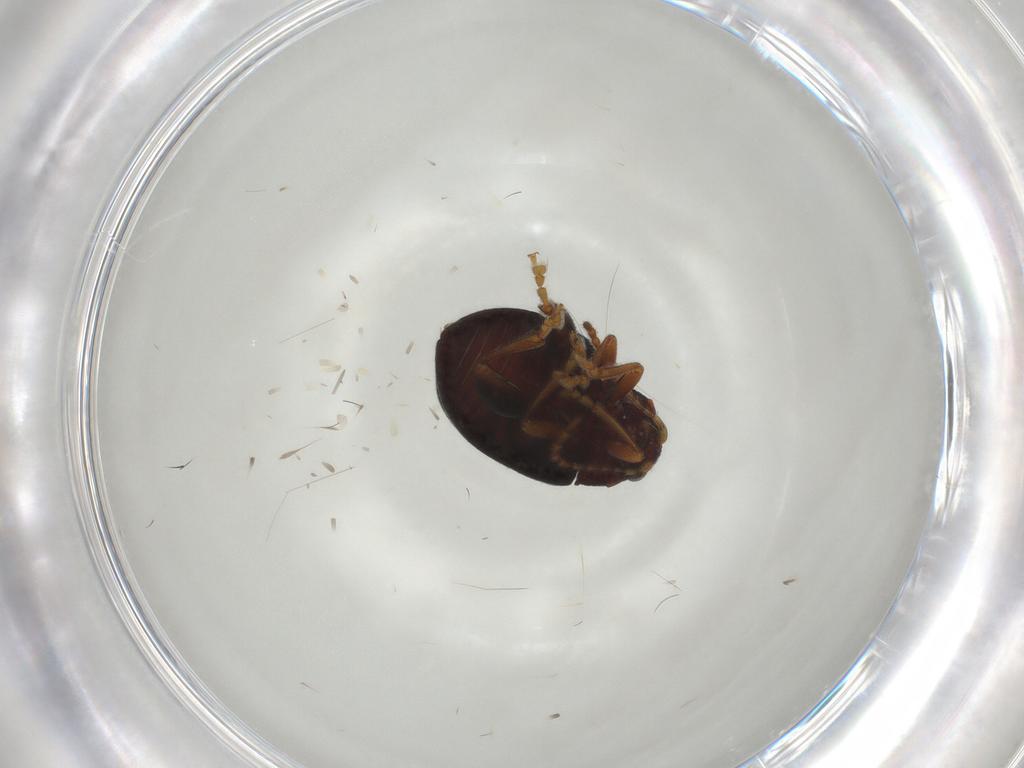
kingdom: Animalia
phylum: Arthropoda
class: Insecta
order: Coleoptera
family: Chrysomelidae
